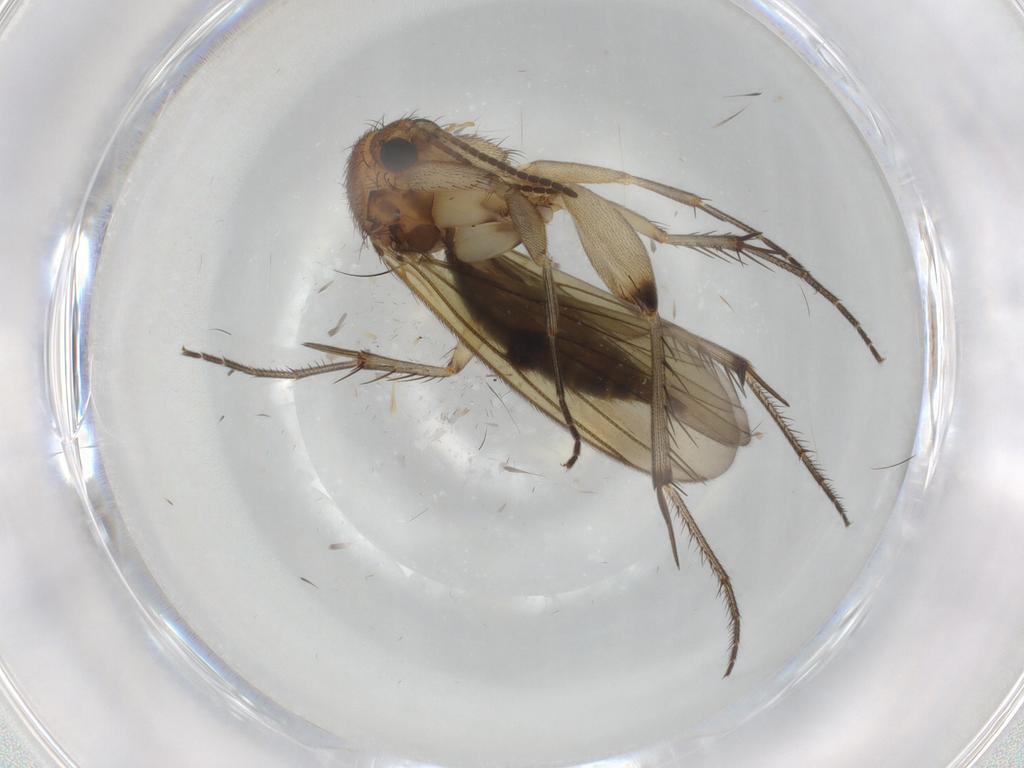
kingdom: Animalia
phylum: Arthropoda
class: Insecta
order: Diptera
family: Mycetophilidae
